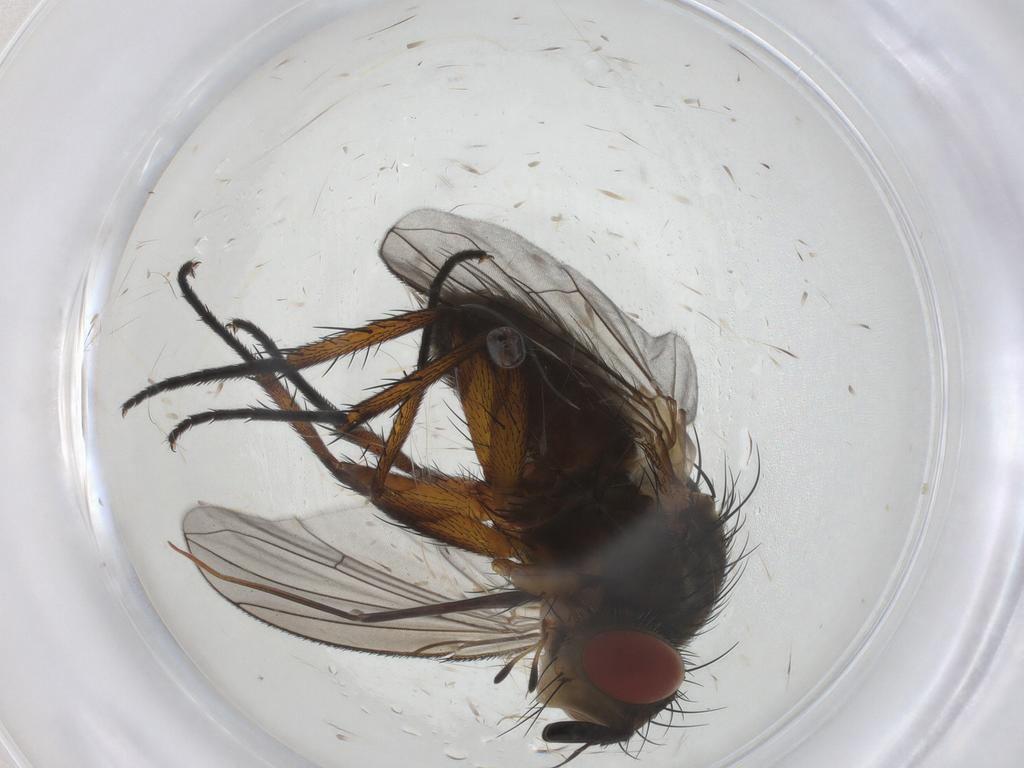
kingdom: Animalia
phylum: Arthropoda
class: Insecta
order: Diptera
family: Tachinidae
